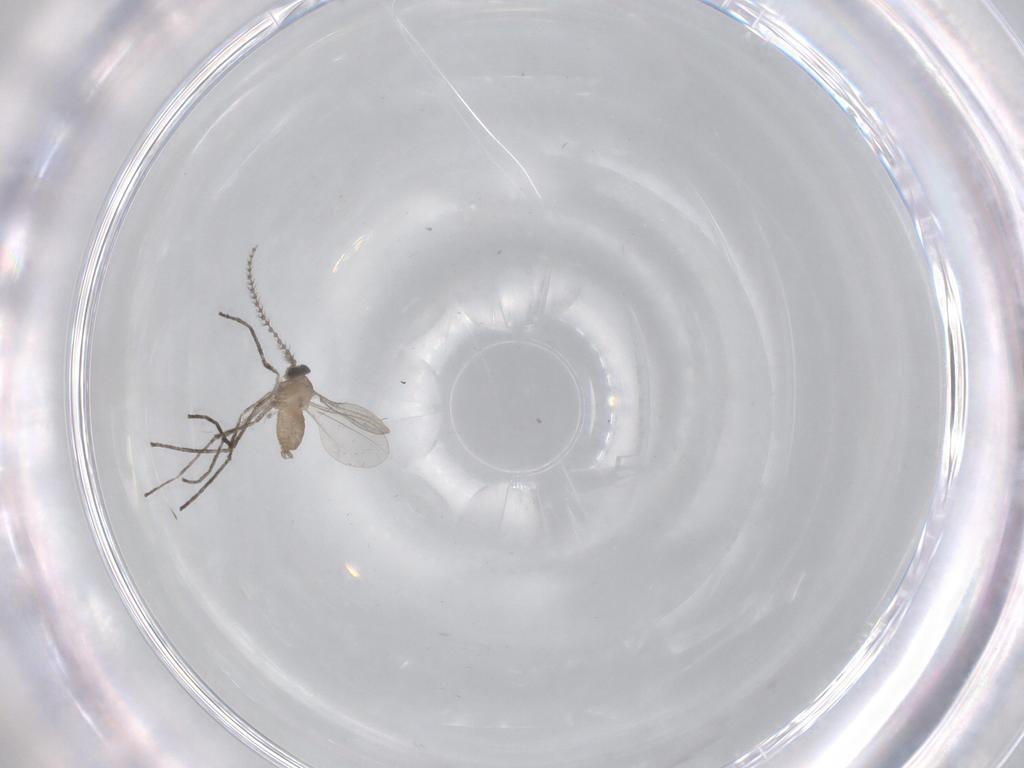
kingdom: Animalia
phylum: Arthropoda
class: Insecta
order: Diptera
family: Cecidomyiidae
